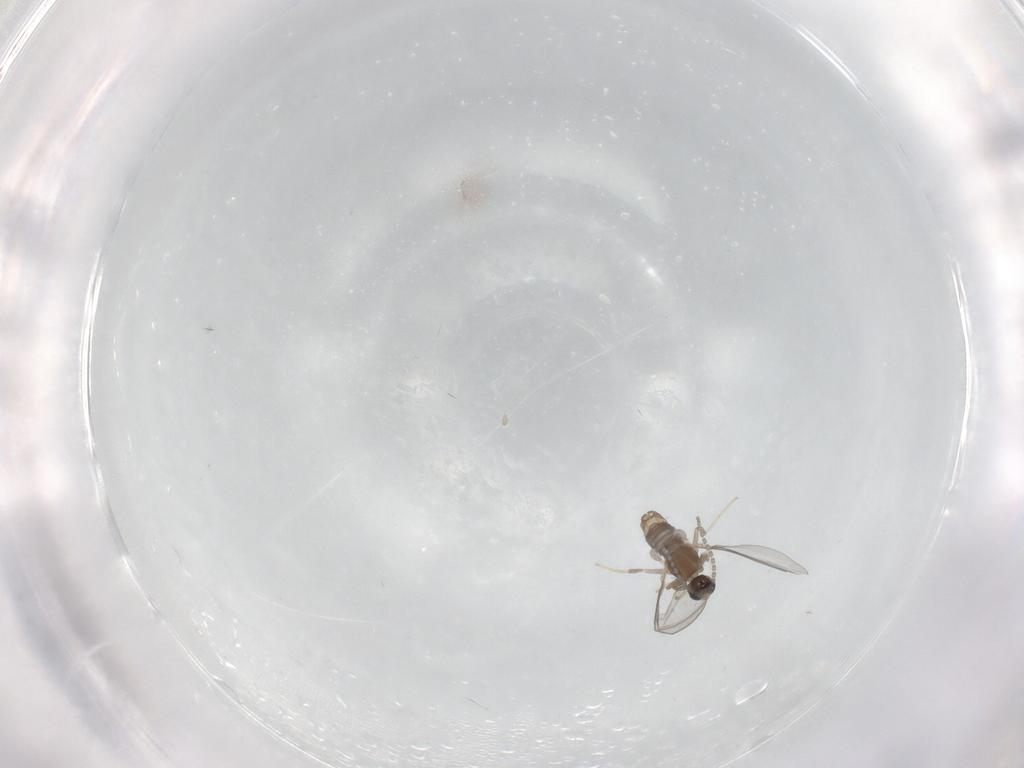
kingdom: Animalia
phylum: Arthropoda
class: Insecta
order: Diptera
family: Cecidomyiidae
